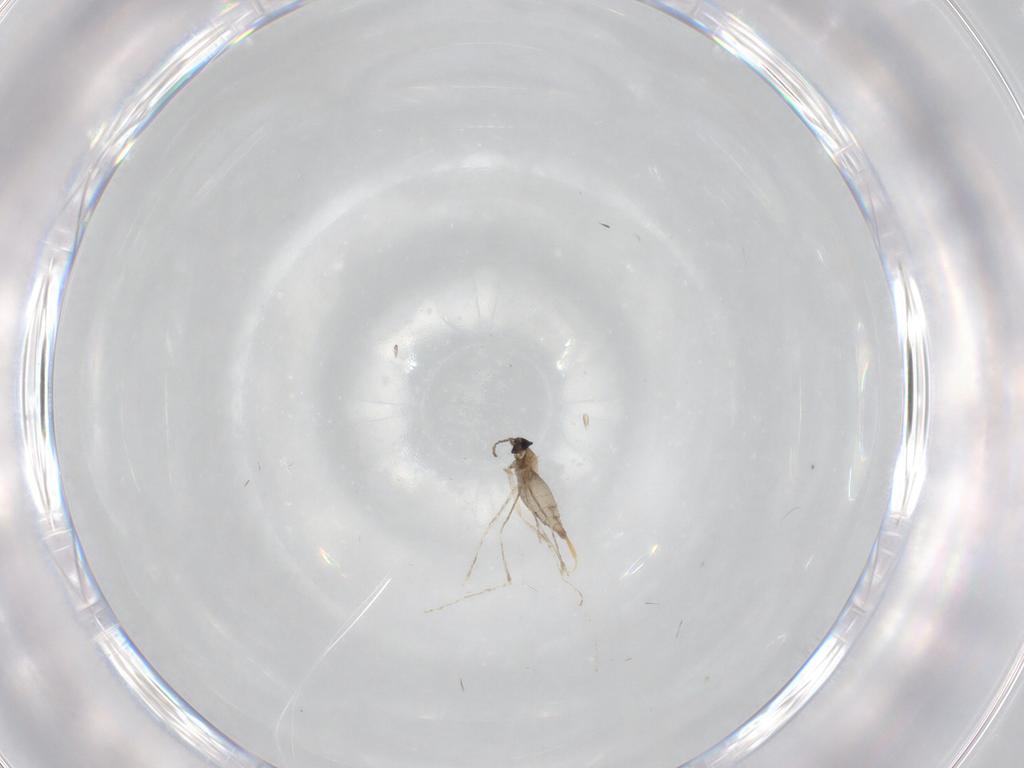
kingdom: Animalia
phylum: Arthropoda
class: Insecta
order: Diptera
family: Cecidomyiidae
